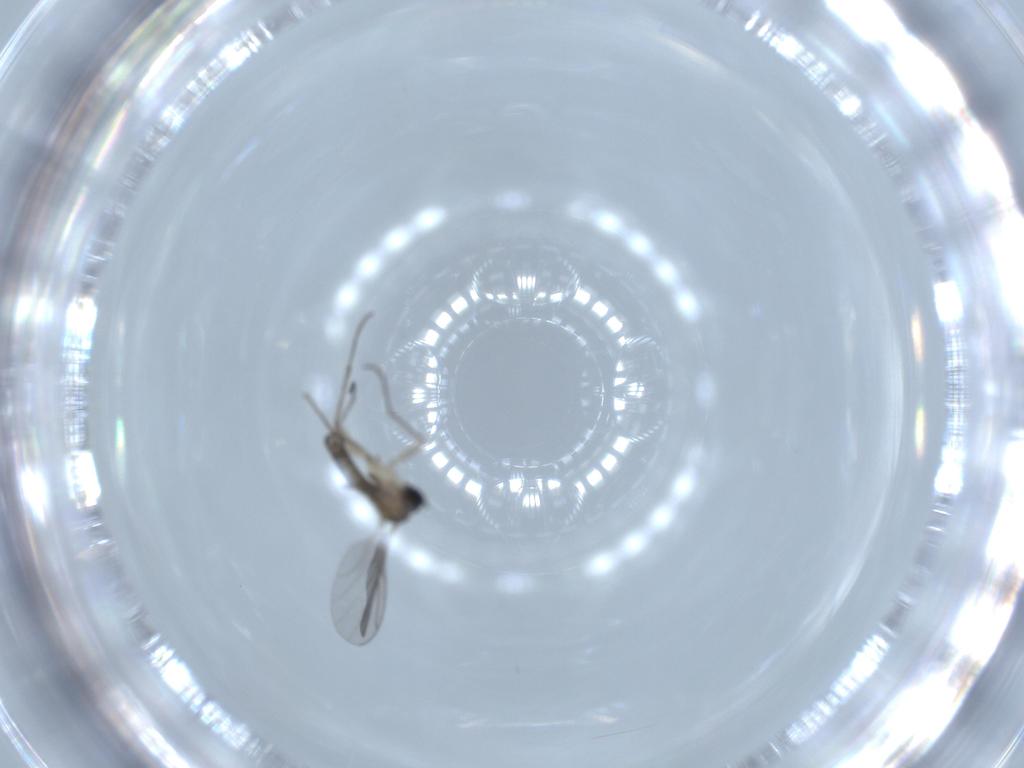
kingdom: Animalia
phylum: Arthropoda
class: Insecta
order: Diptera
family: Sciaridae
